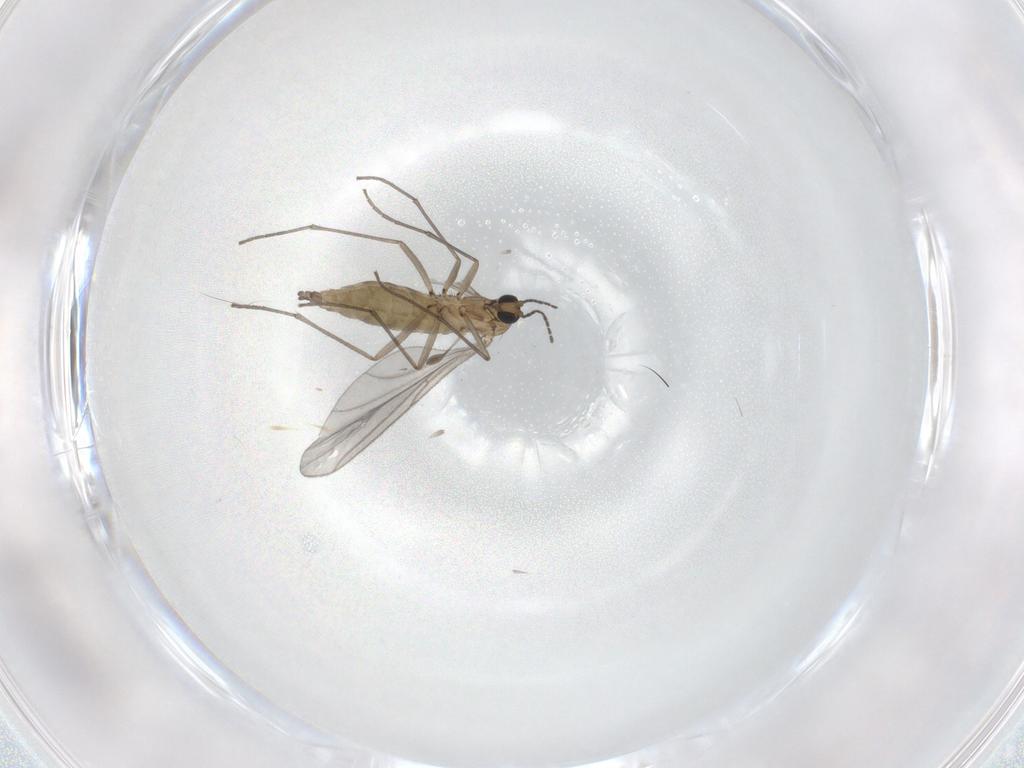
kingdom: Animalia
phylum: Arthropoda
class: Insecta
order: Diptera
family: Sciaridae
